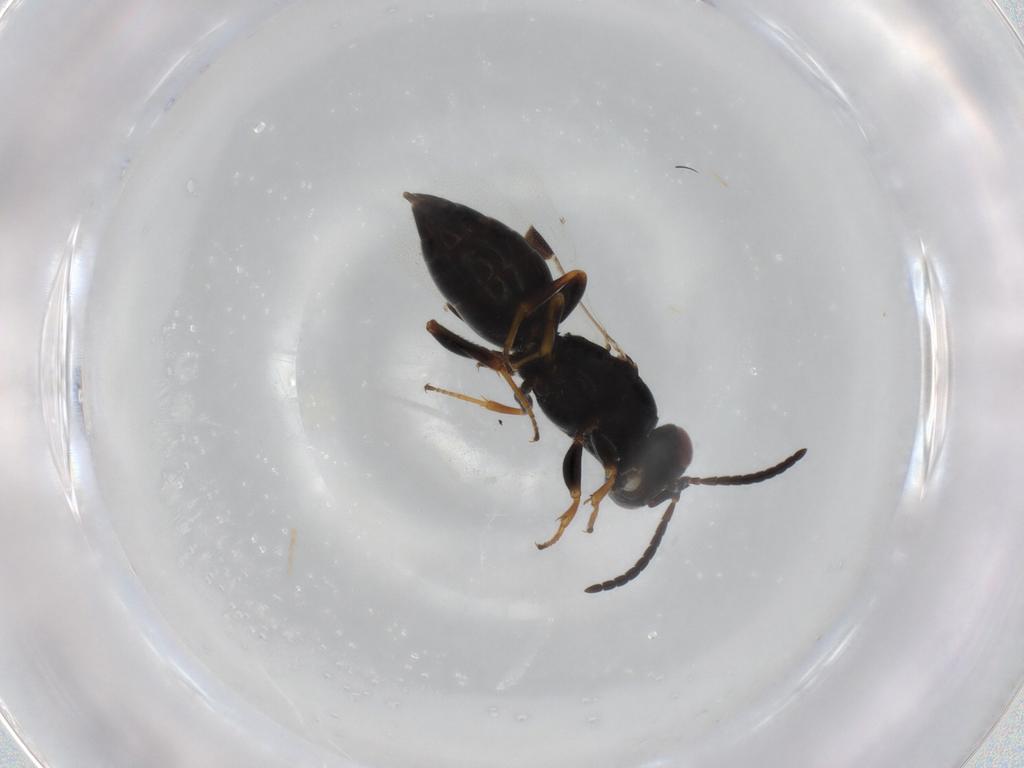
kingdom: Animalia
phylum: Arthropoda
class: Insecta
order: Hymenoptera
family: Megaspilidae
